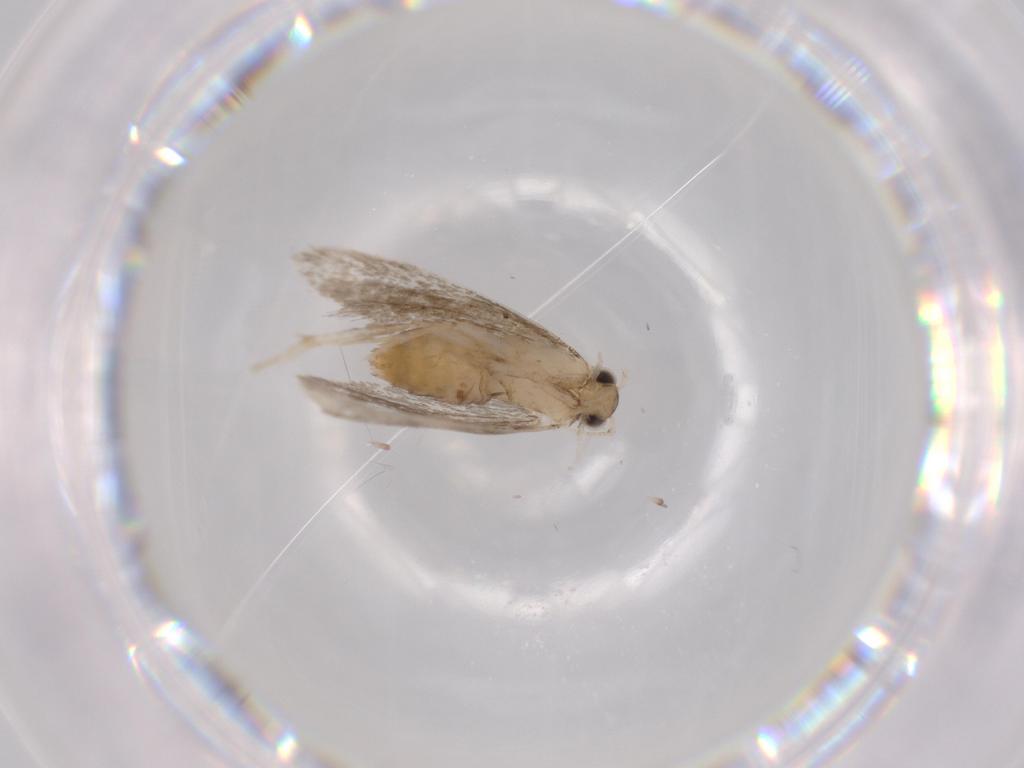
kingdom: Animalia
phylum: Arthropoda
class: Insecta
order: Lepidoptera
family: Tineidae
